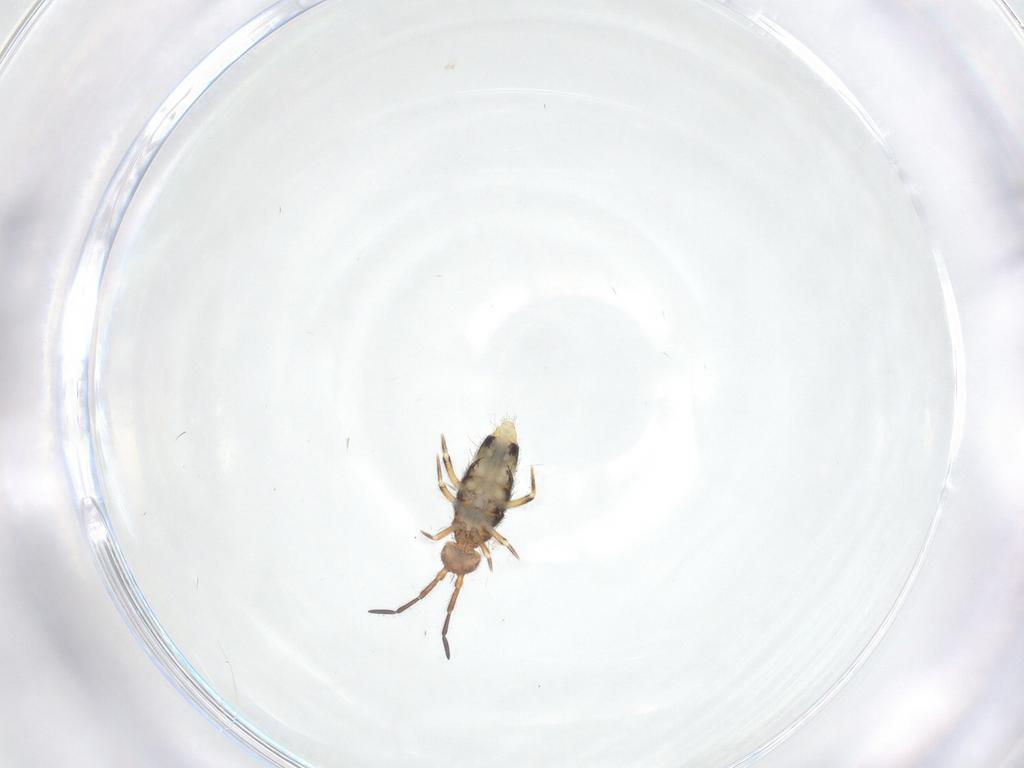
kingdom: Animalia
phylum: Arthropoda
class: Collembola
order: Entomobryomorpha
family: Entomobryidae
